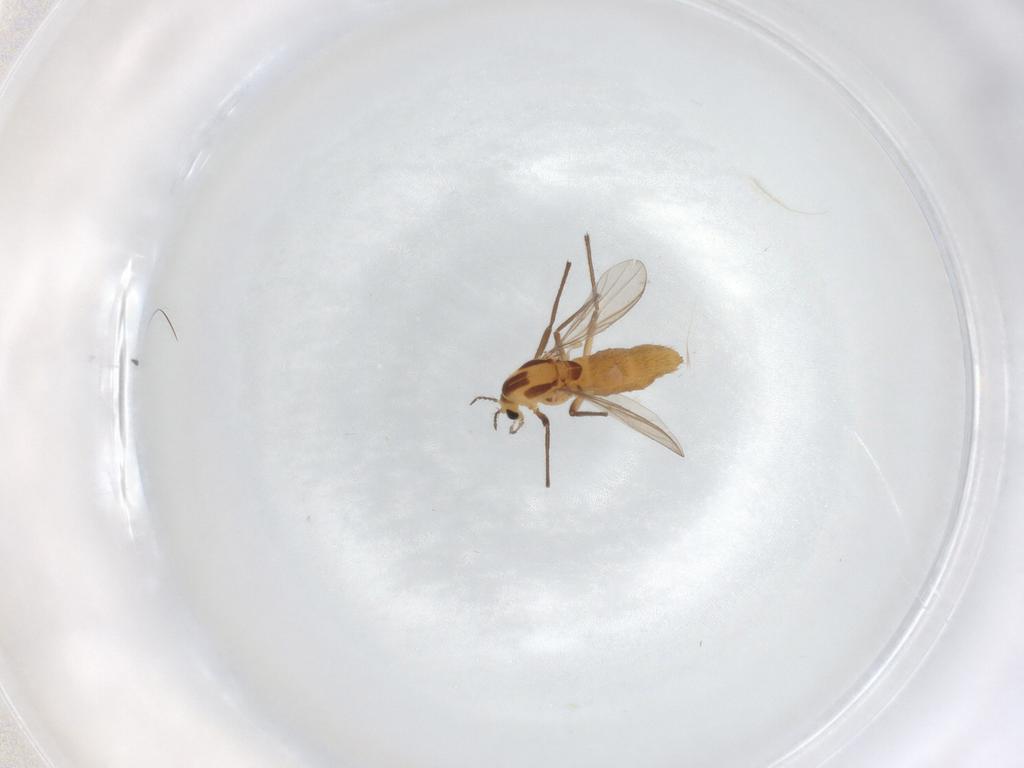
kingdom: Animalia
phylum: Arthropoda
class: Insecta
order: Diptera
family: Chironomidae
